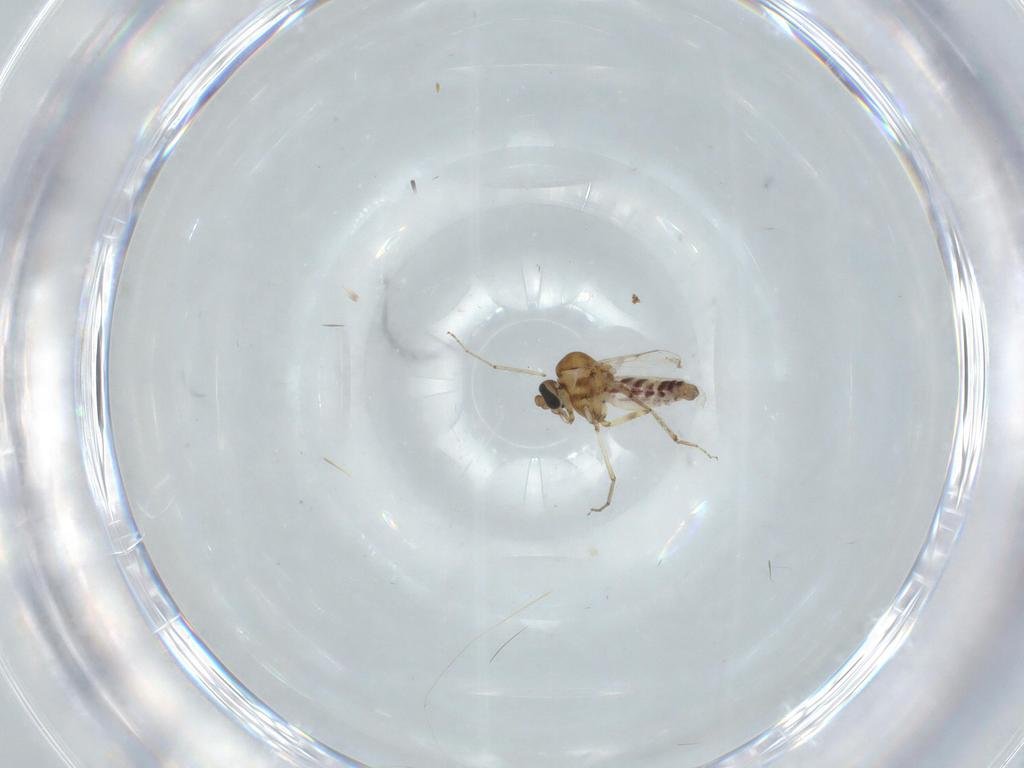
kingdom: Animalia
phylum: Arthropoda
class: Insecta
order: Diptera
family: Ceratopogonidae
